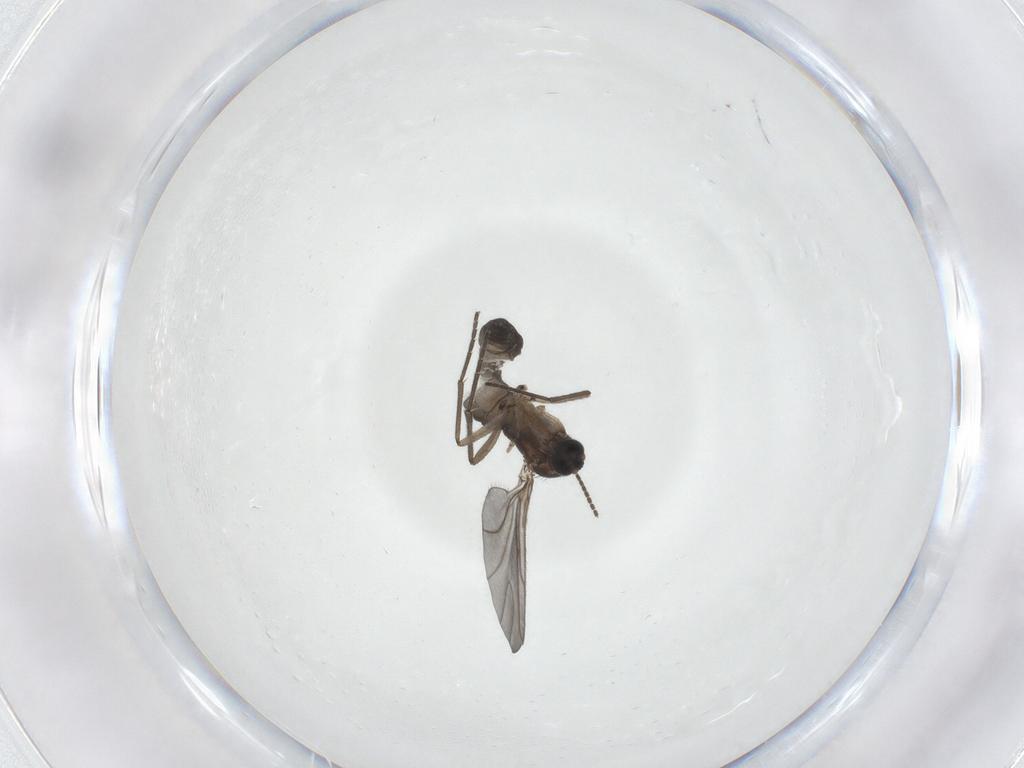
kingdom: Animalia
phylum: Arthropoda
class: Insecta
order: Diptera
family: Sciaridae
